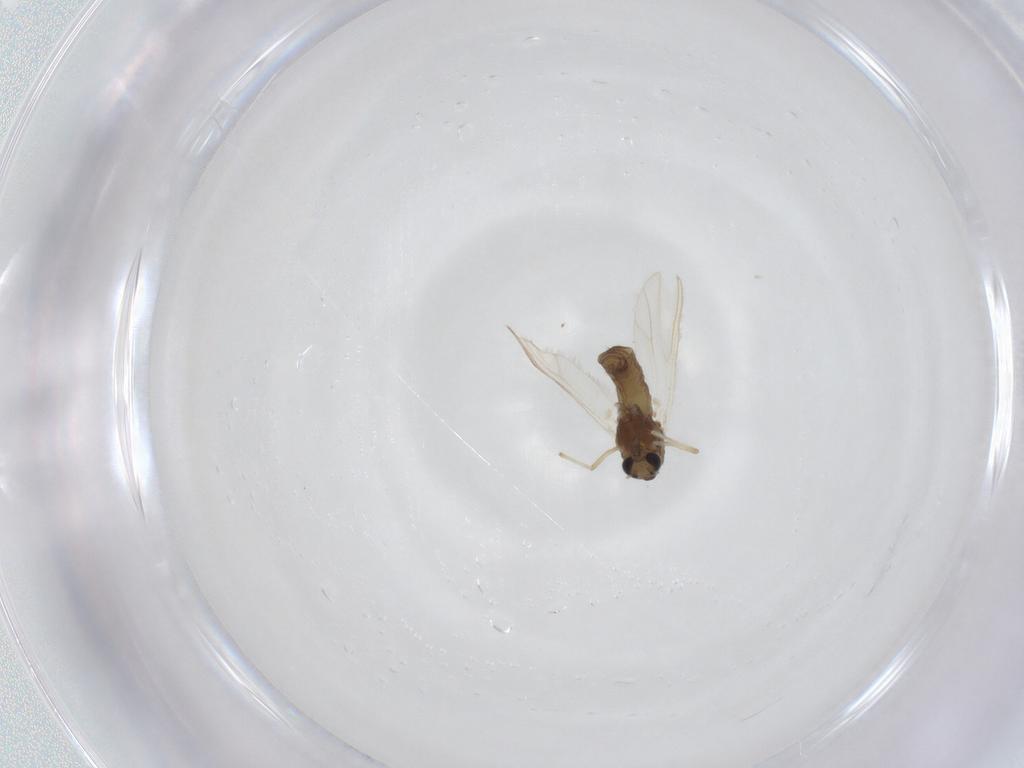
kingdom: Animalia
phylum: Arthropoda
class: Insecta
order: Diptera
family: Chironomidae
